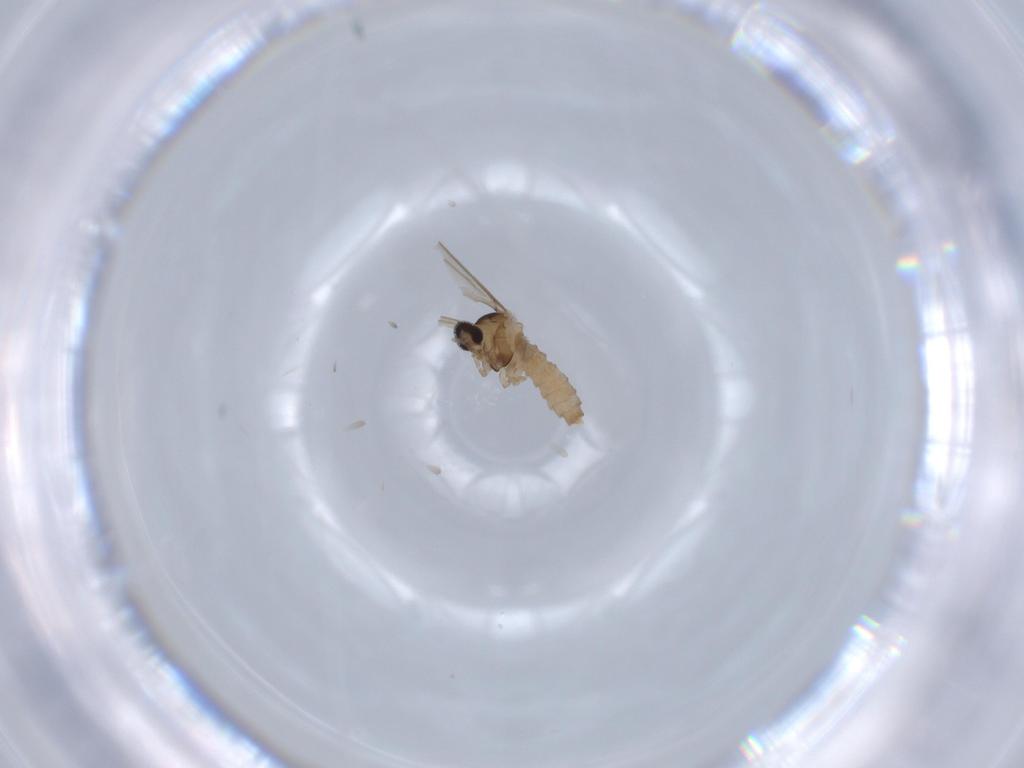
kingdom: Animalia
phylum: Arthropoda
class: Insecta
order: Diptera
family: Cecidomyiidae
